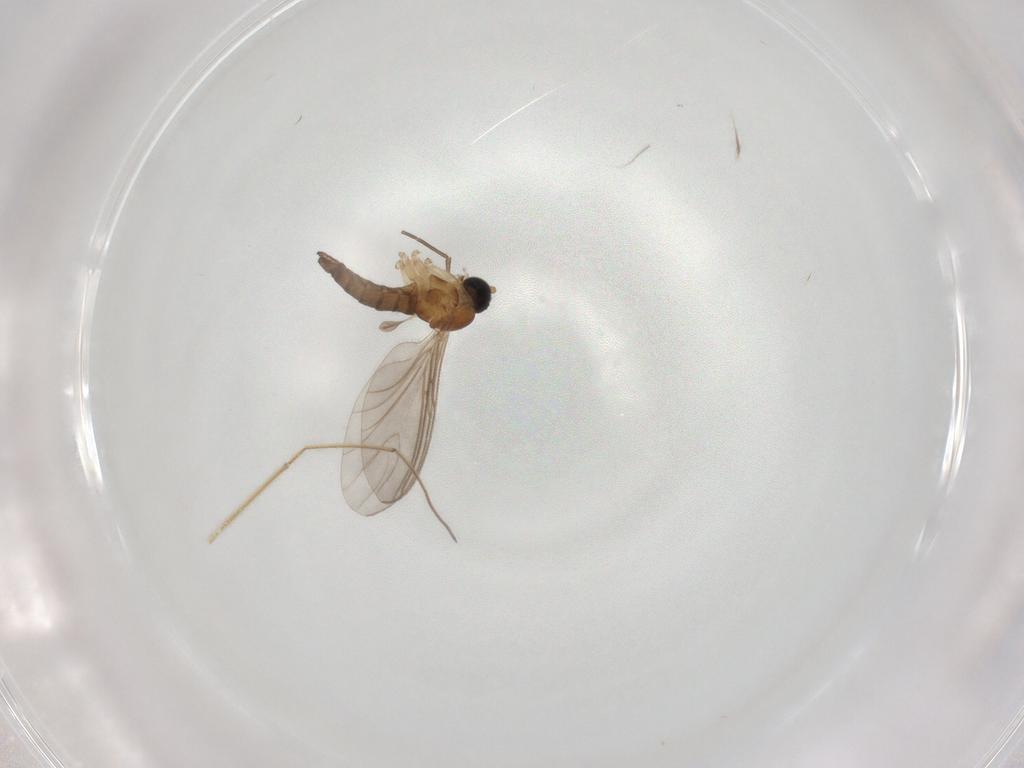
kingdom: Animalia
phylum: Arthropoda
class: Insecta
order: Diptera
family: Sciaridae
